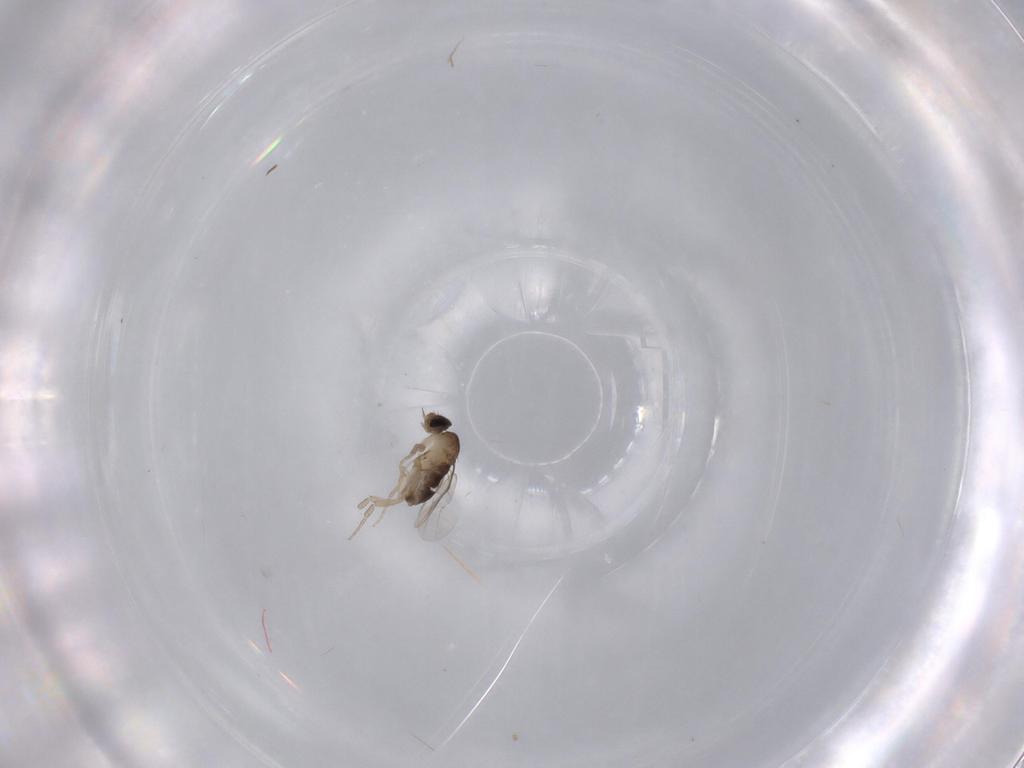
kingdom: Animalia
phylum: Arthropoda
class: Insecta
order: Diptera
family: Phoridae
